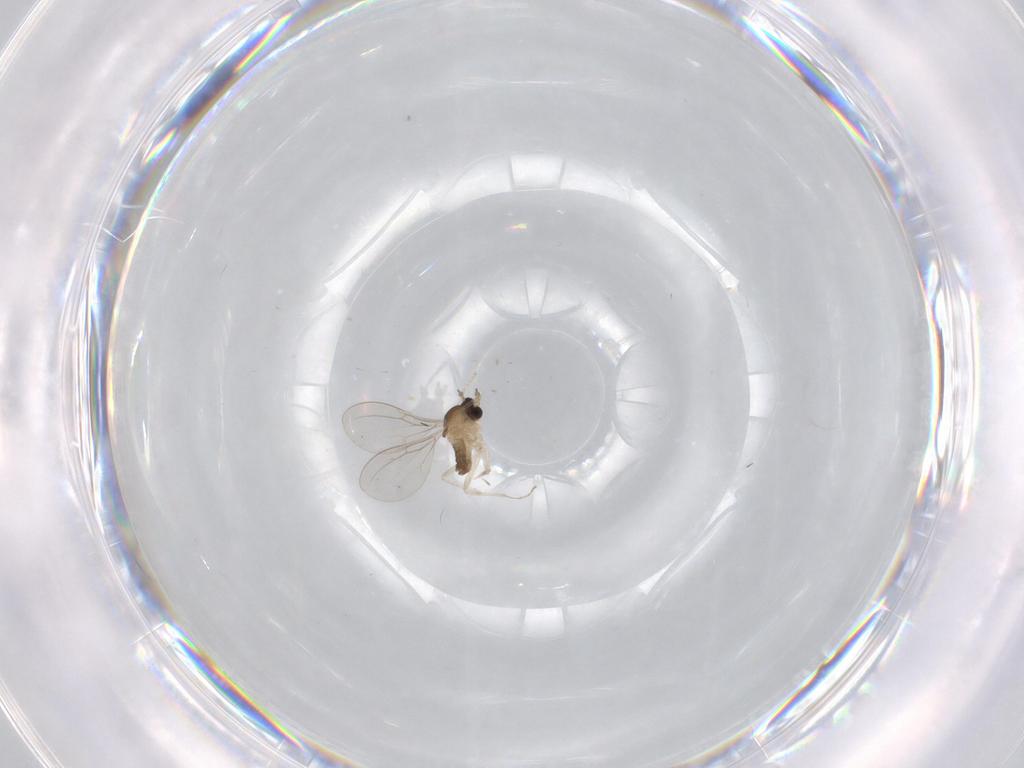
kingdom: Animalia
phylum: Arthropoda
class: Insecta
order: Diptera
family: Cecidomyiidae
